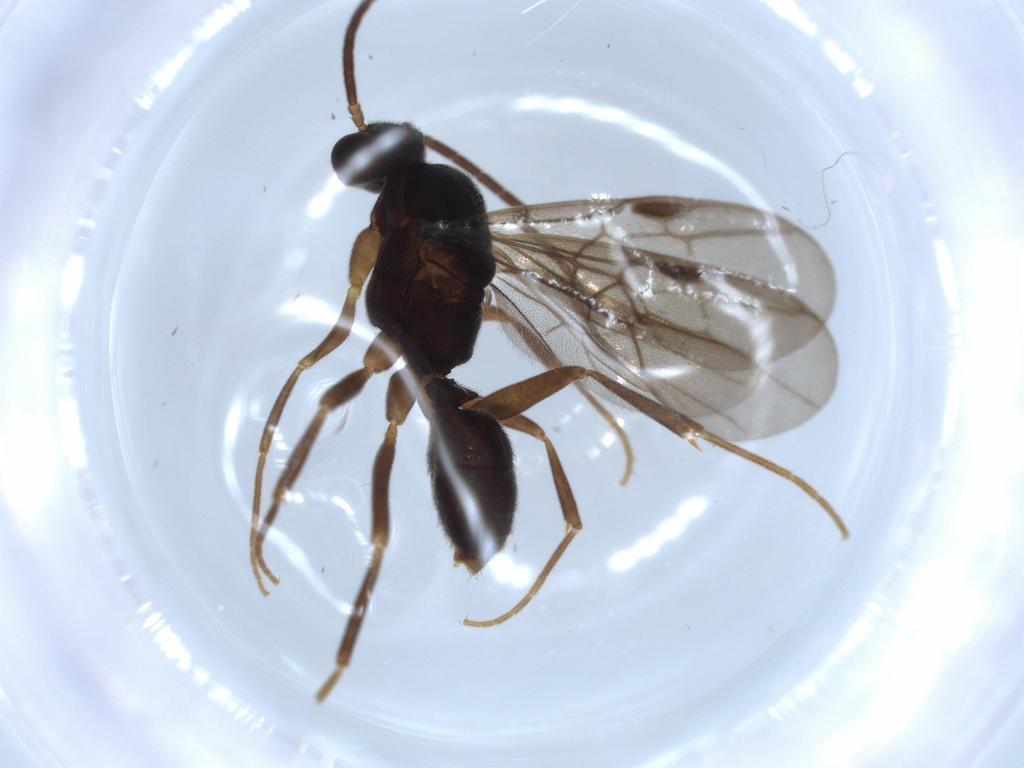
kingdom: Animalia
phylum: Arthropoda
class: Insecta
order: Hymenoptera
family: Formicidae
